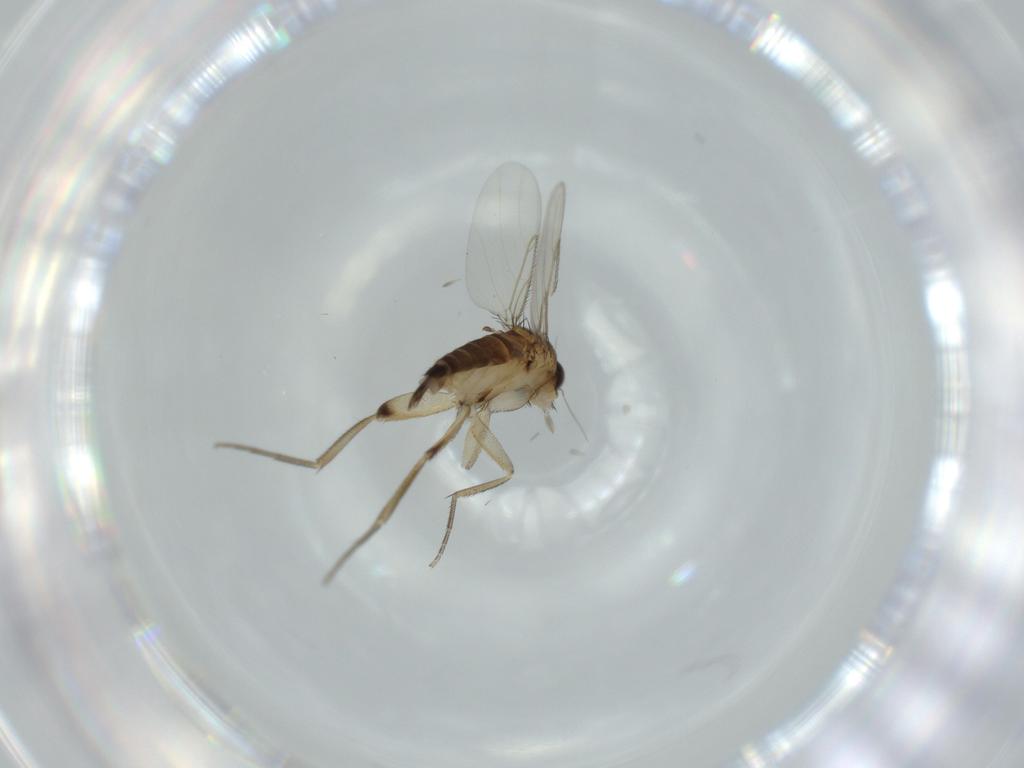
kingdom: Animalia
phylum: Arthropoda
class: Insecta
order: Diptera
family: Phoridae
